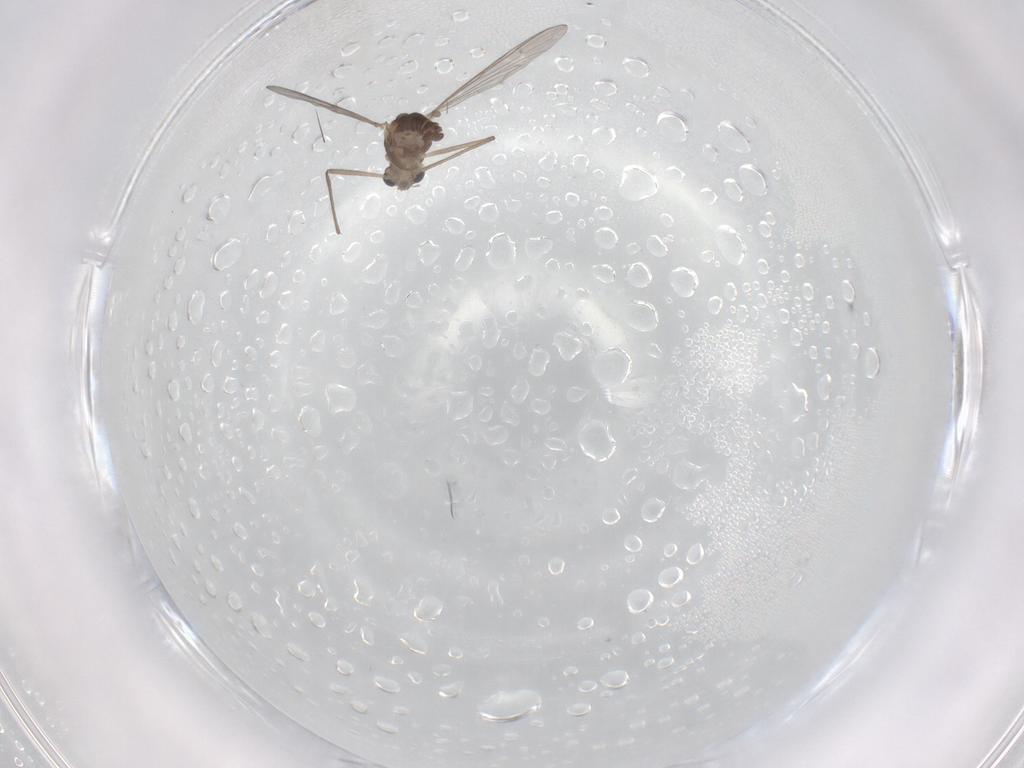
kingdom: Animalia
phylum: Arthropoda
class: Insecta
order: Diptera
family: Chironomidae
